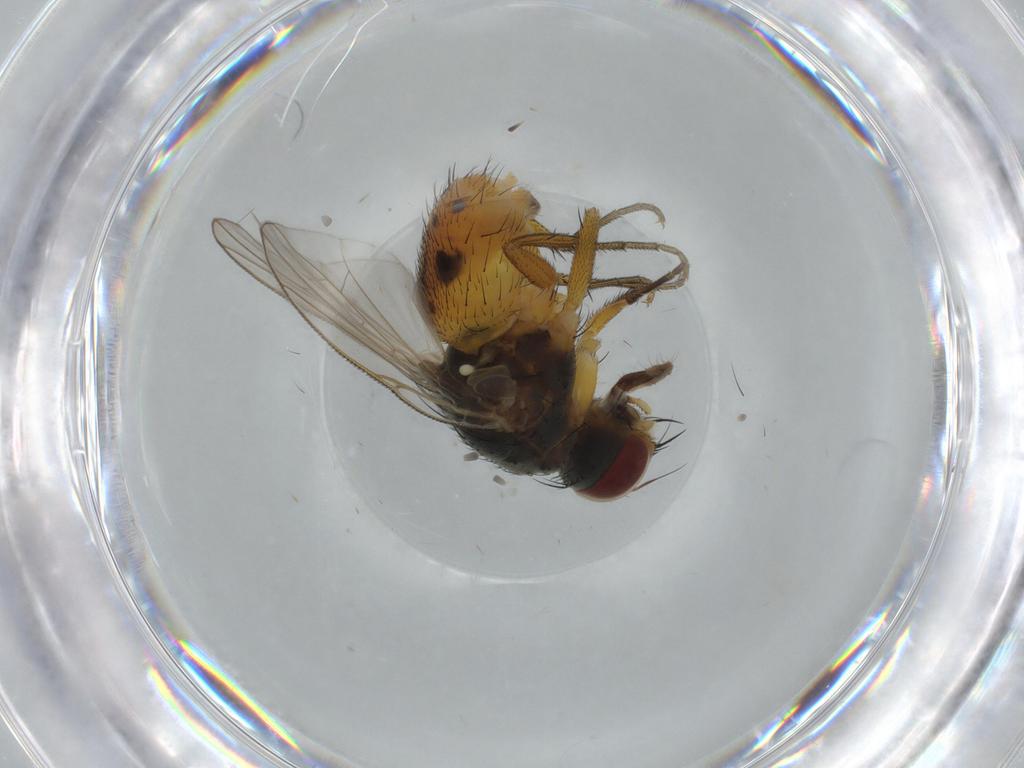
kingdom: Animalia
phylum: Arthropoda
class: Insecta
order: Diptera
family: Muscidae
